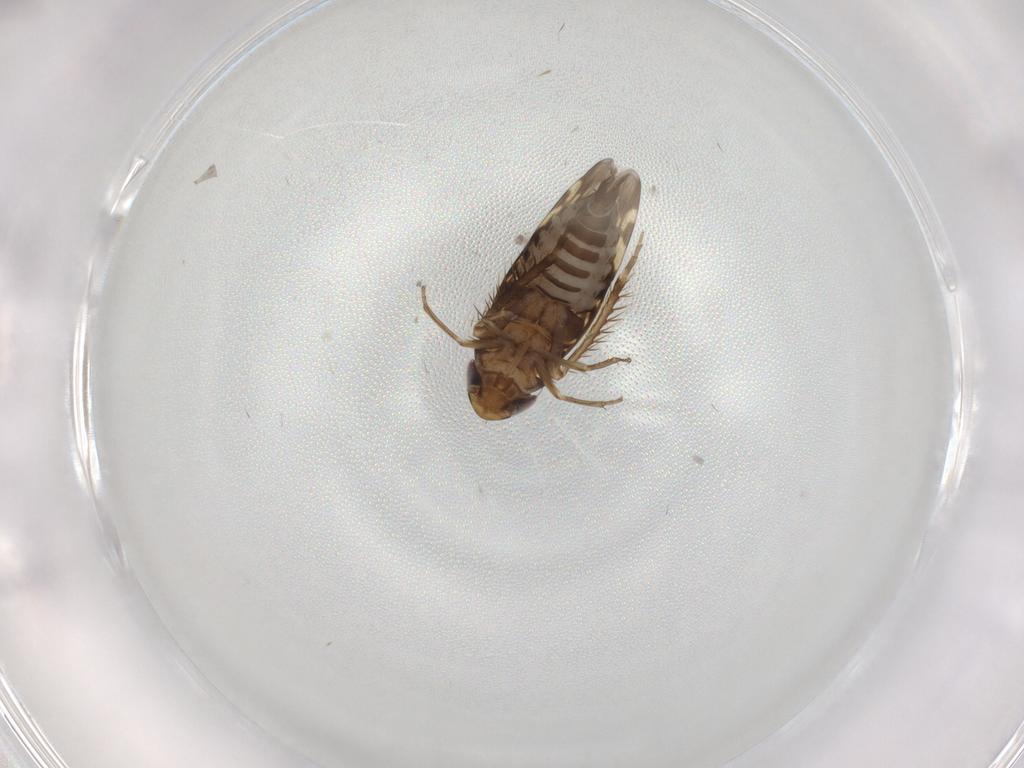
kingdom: Animalia
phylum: Arthropoda
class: Insecta
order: Hemiptera
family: Cicadellidae
